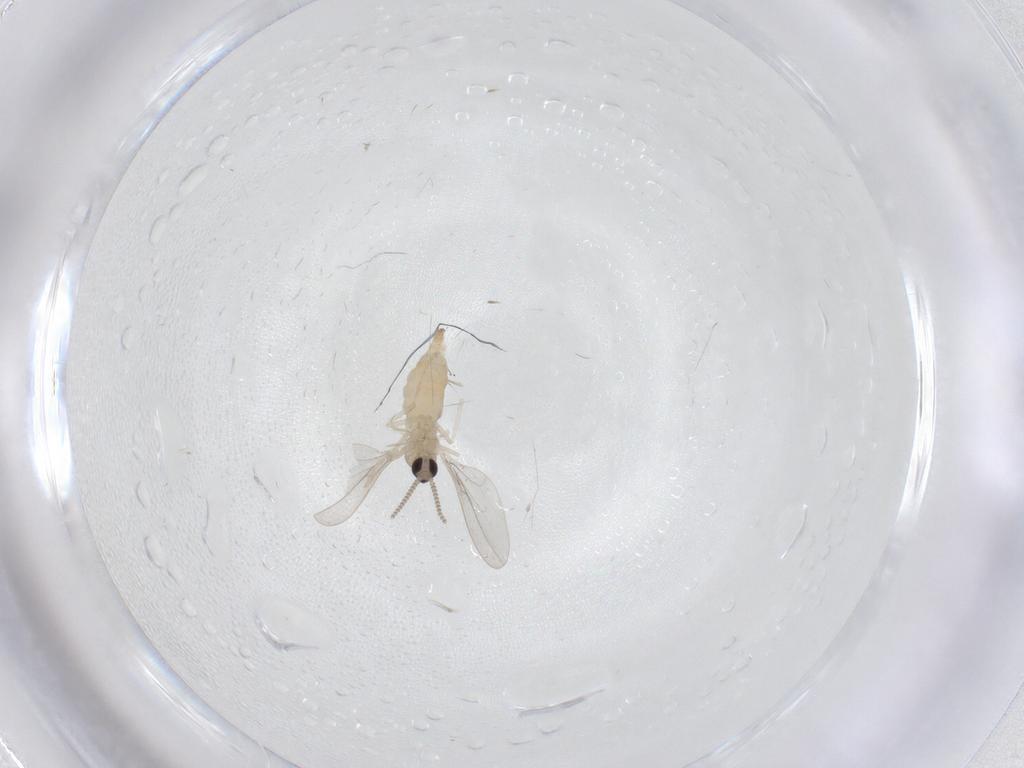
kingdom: Animalia
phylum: Arthropoda
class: Insecta
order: Diptera
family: Cecidomyiidae
